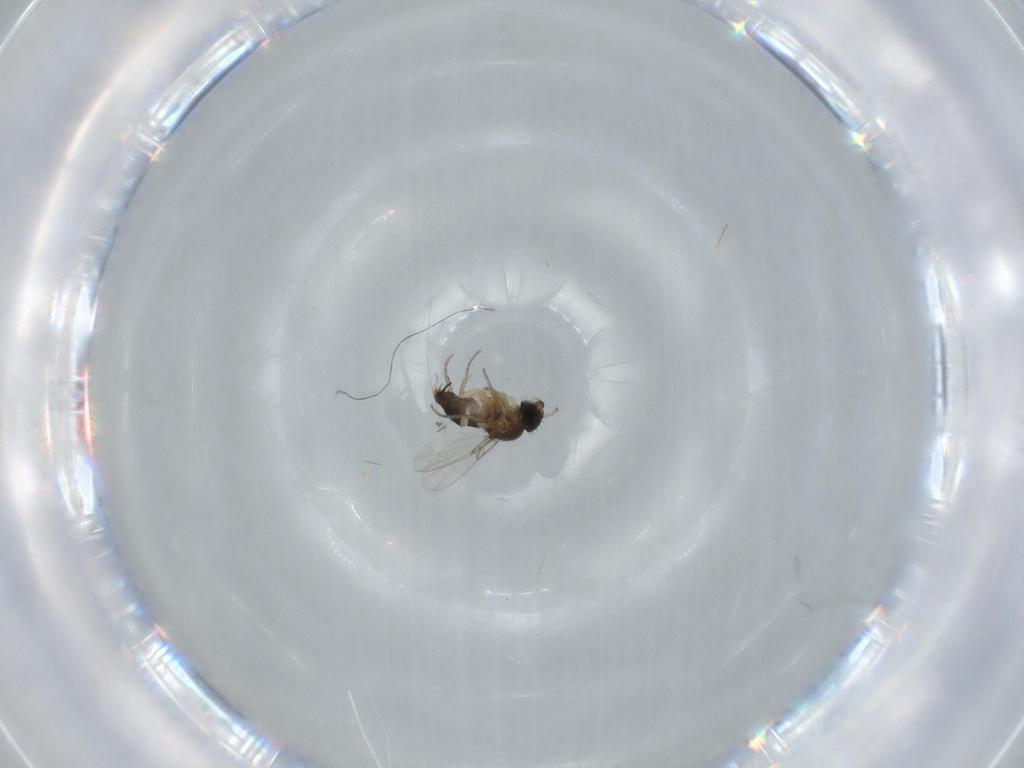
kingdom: Animalia
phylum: Arthropoda
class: Insecta
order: Diptera
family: Phoridae
